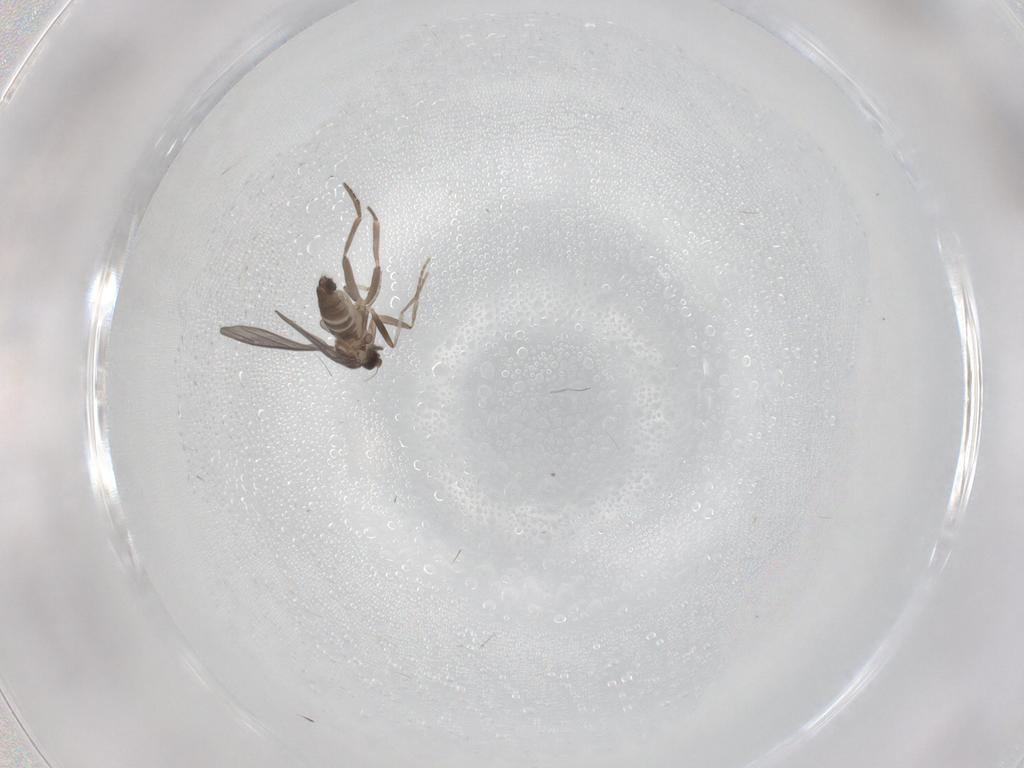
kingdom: Animalia
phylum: Arthropoda
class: Insecta
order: Diptera
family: Phoridae
